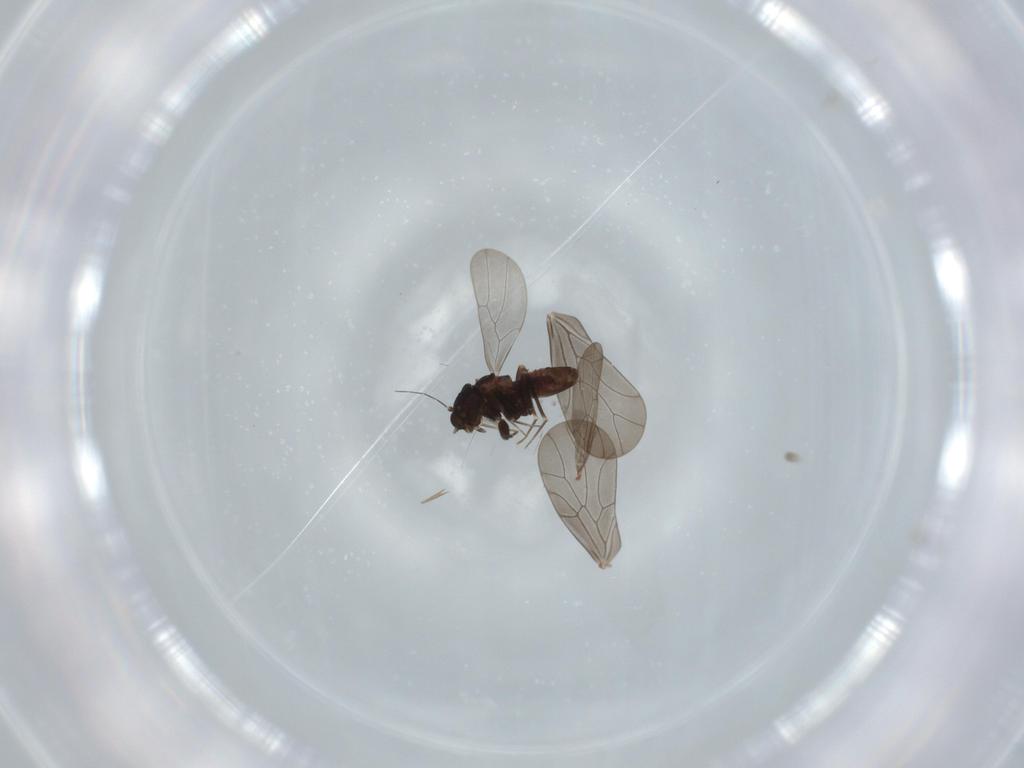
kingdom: Animalia
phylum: Arthropoda
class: Insecta
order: Psocodea
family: Lepidopsocidae
